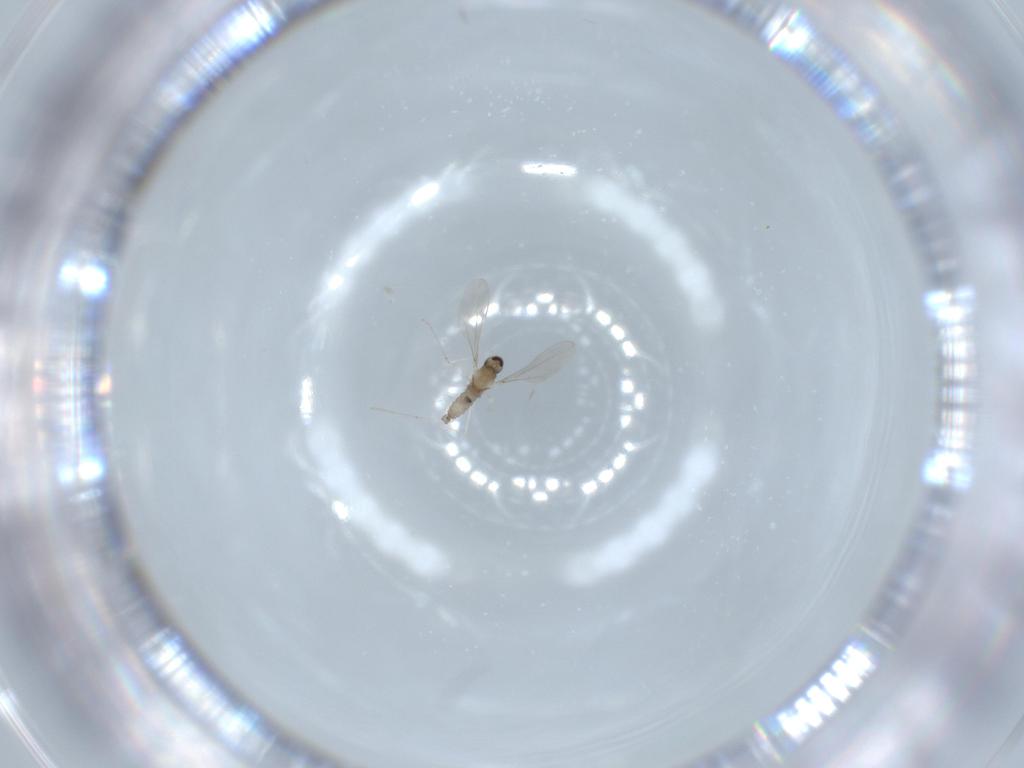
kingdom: Animalia
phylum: Arthropoda
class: Insecta
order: Diptera
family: Cecidomyiidae
